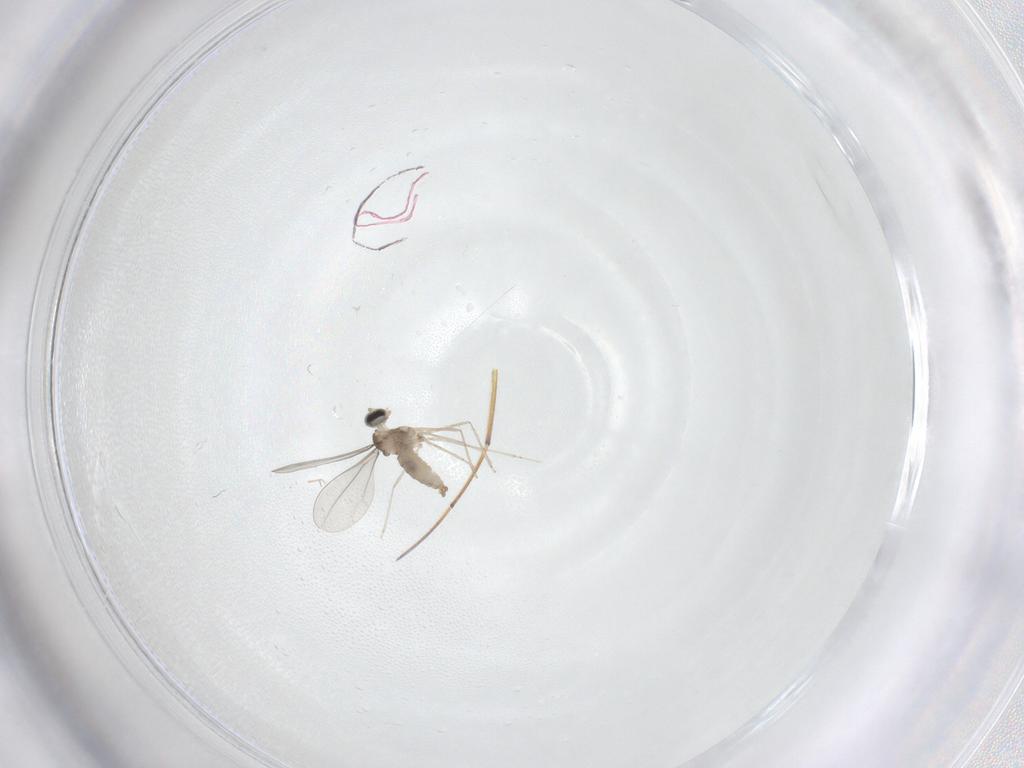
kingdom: Animalia
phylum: Arthropoda
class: Insecta
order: Diptera
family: Cecidomyiidae
